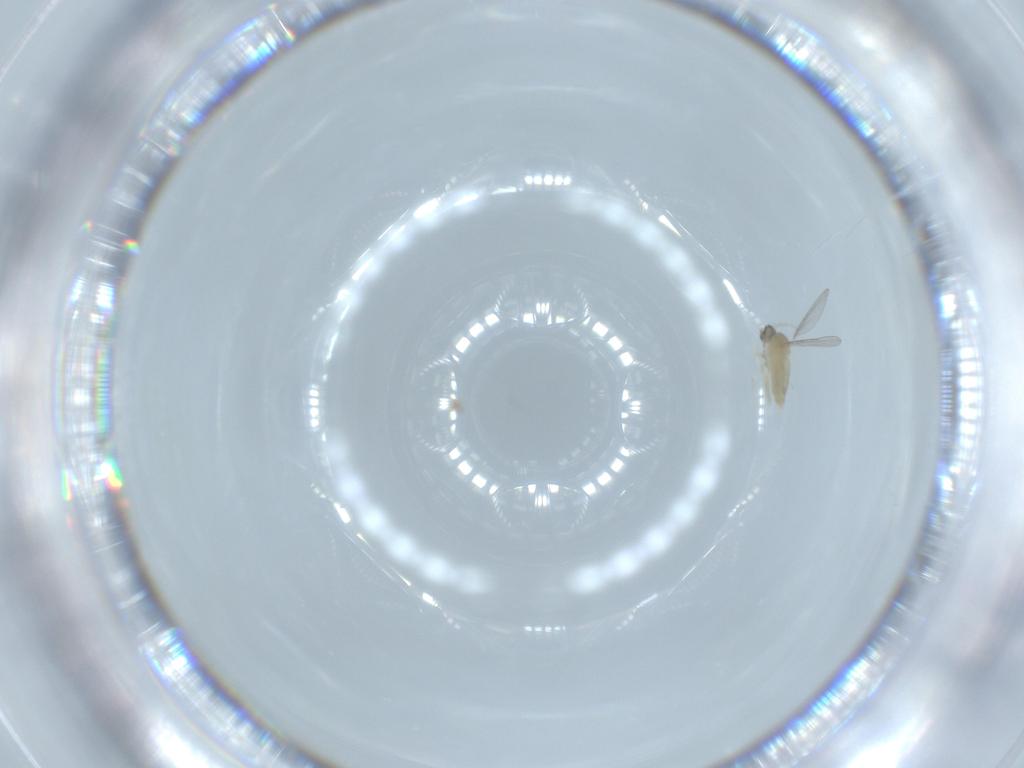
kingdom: Animalia
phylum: Arthropoda
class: Insecta
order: Diptera
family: Cecidomyiidae
